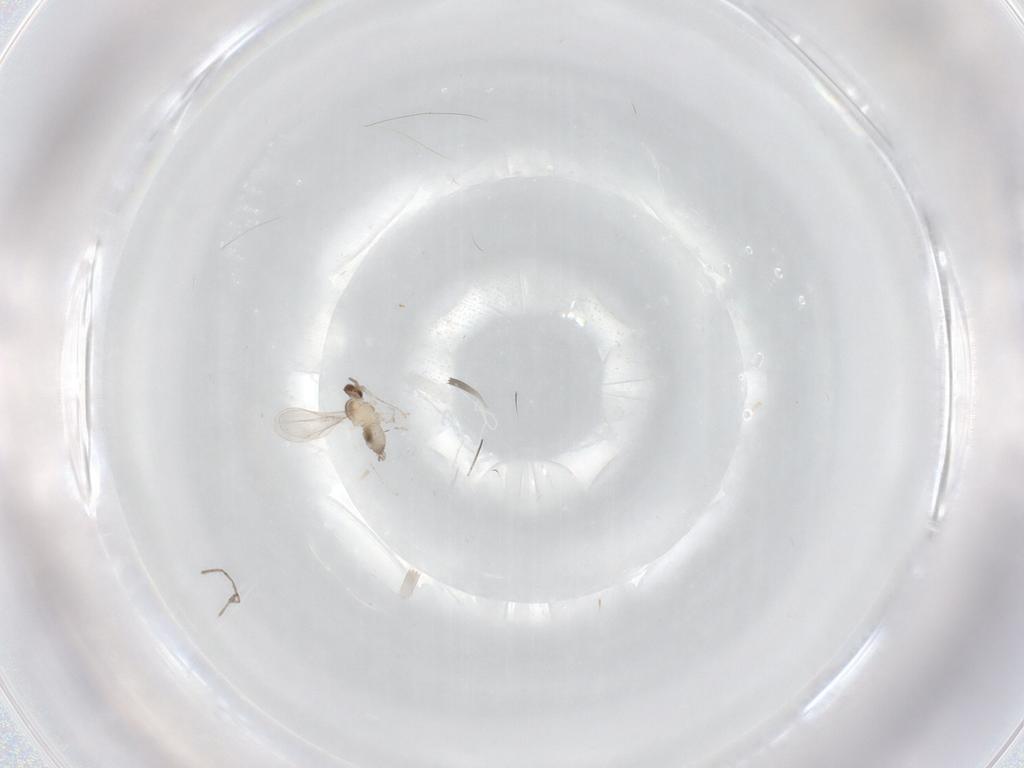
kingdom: Animalia
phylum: Arthropoda
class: Insecta
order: Diptera
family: Cecidomyiidae
